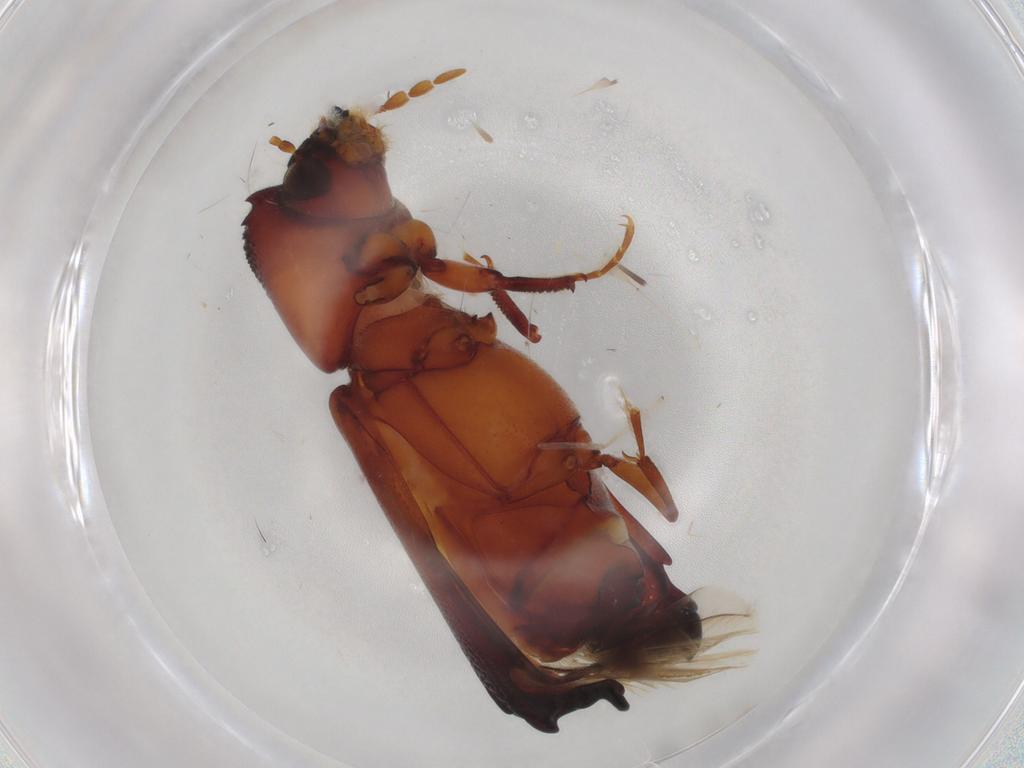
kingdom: Animalia
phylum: Arthropoda
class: Insecta
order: Coleoptera
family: Bostrichidae
